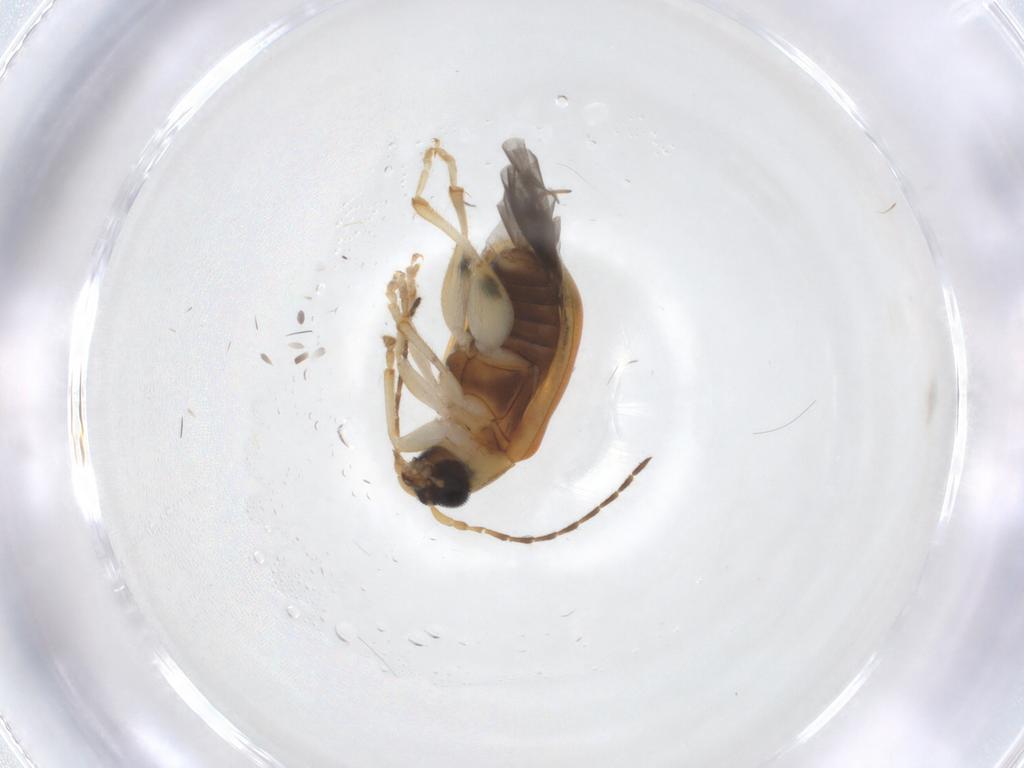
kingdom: Animalia
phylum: Arthropoda
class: Insecta
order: Coleoptera
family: Chrysomelidae
